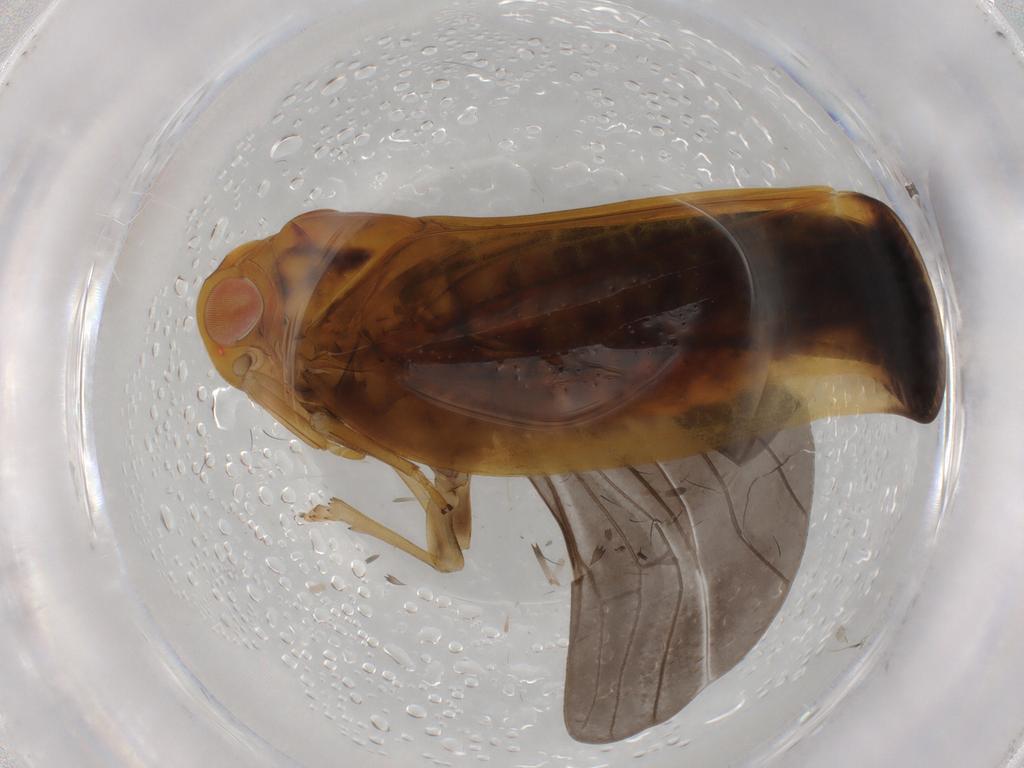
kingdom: Animalia
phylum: Arthropoda
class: Insecta
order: Hemiptera
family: Nogodinidae
